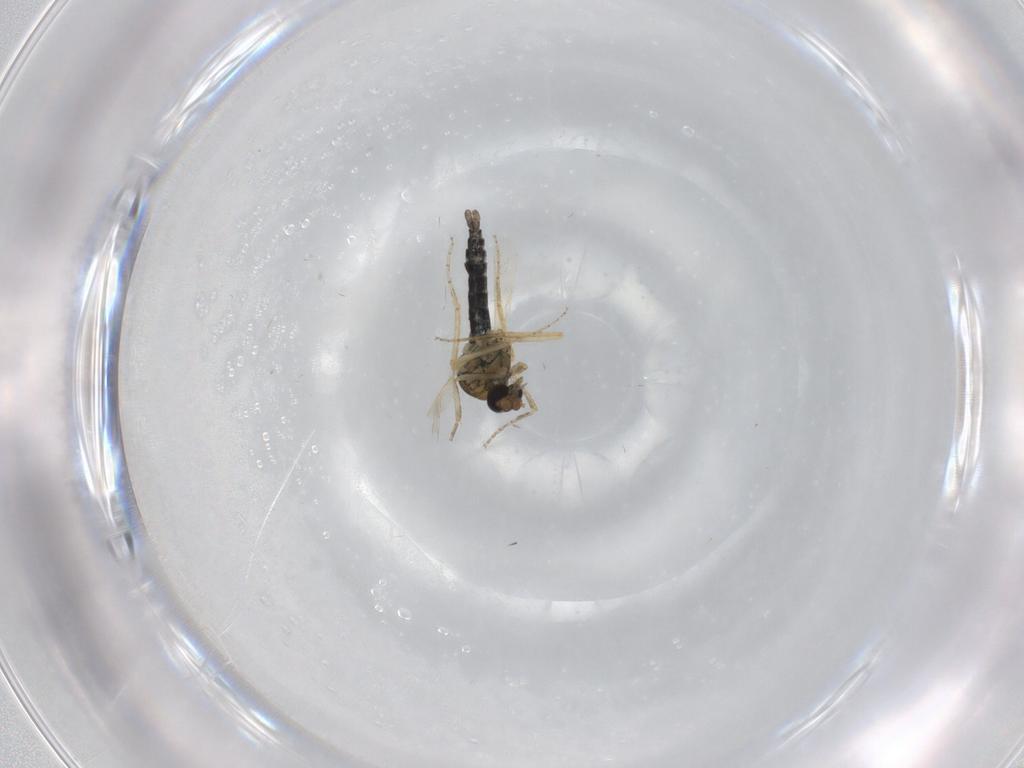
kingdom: Animalia
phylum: Arthropoda
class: Insecta
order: Diptera
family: Ceratopogonidae
